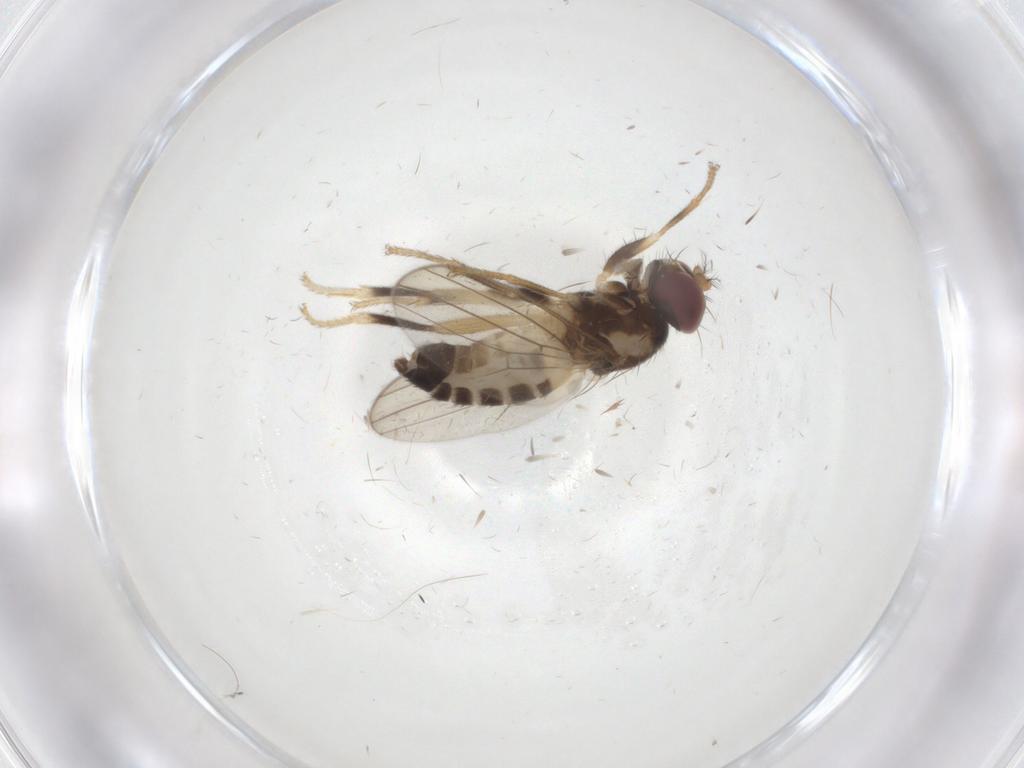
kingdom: Animalia
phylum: Arthropoda
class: Insecta
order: Diptera
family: Periscelididae
